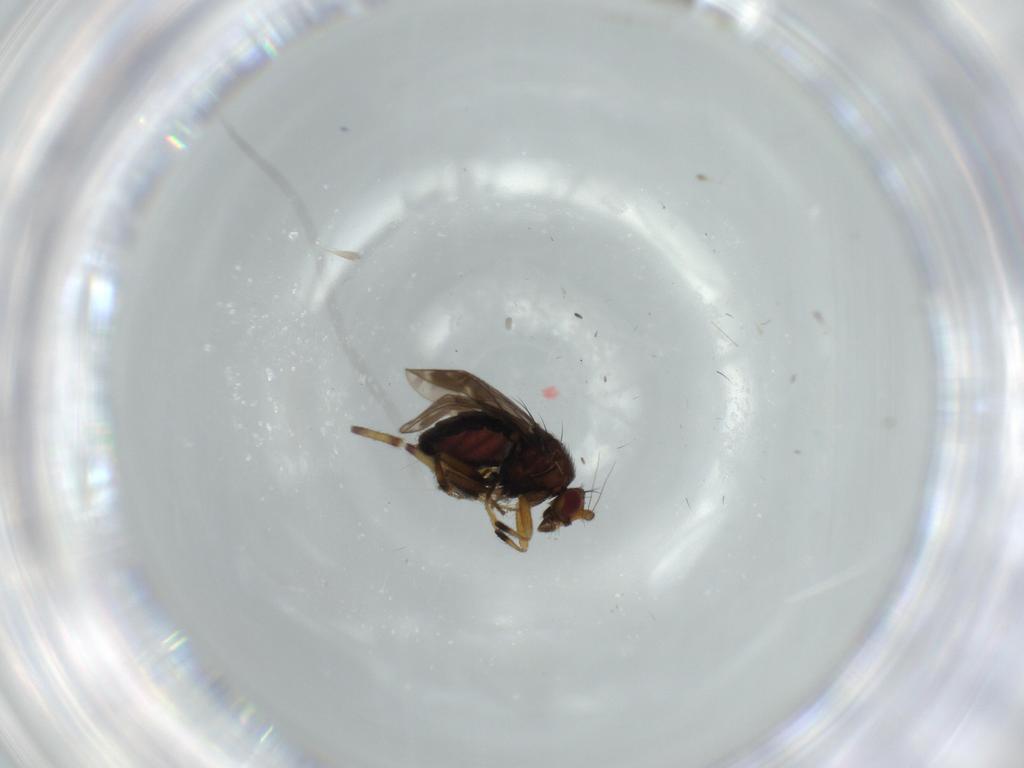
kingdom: Animalia
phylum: Arthropoda
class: Insecta
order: Diptera
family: Sphaeroceridae
